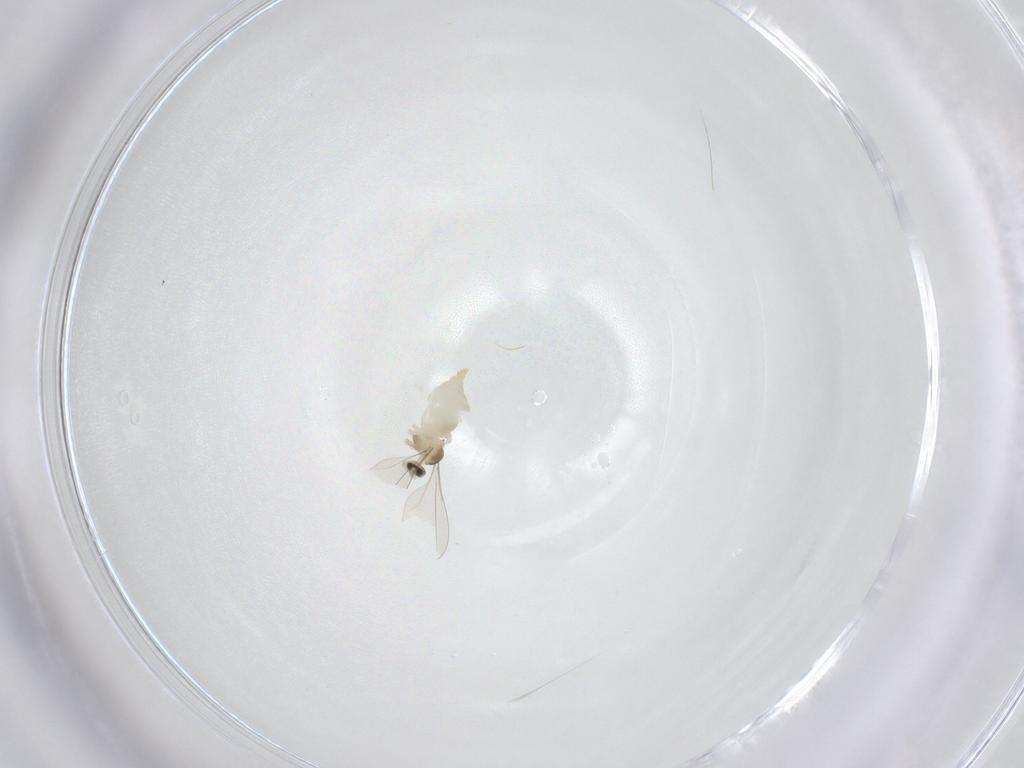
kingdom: Animalia
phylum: Arthropoda
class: Insecta
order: Diptera
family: Cecidomyiidae
